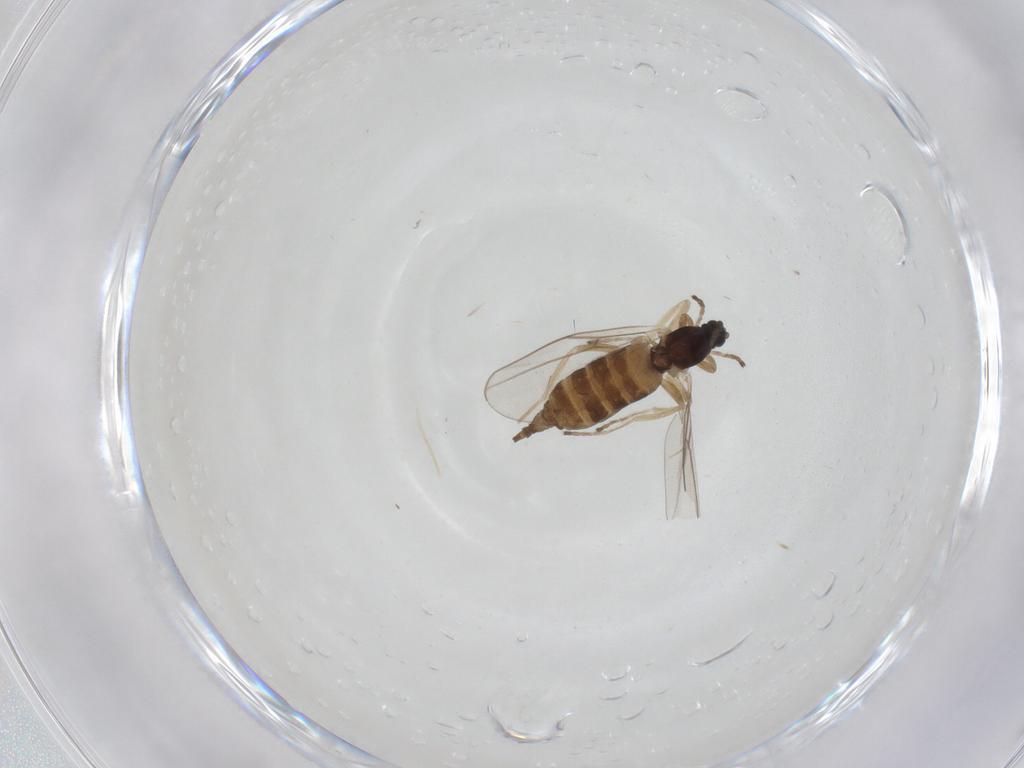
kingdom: Animalia
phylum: Arthropoda
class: Insecta
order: Diptera
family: Cecidomyiidae
